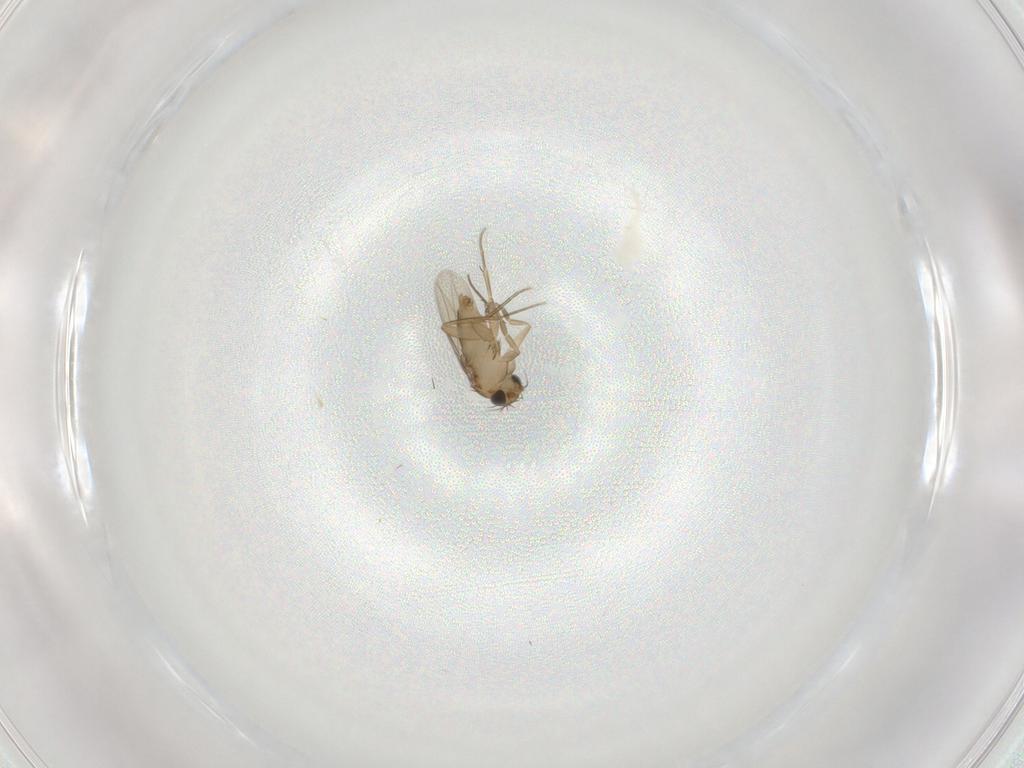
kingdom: Animalia
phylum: Arthropoda
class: Insecta
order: Diptera
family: Phoridae
